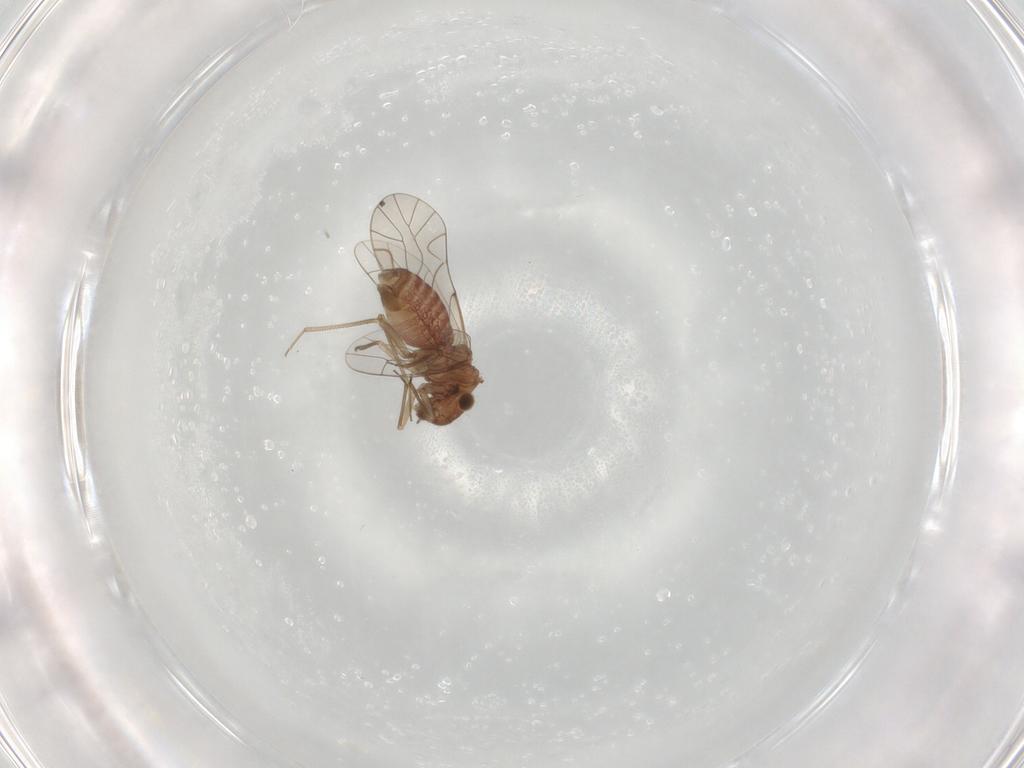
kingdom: Animalia
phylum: Arthropoda
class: Insecta
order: Psocodea
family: Lachesillidae
